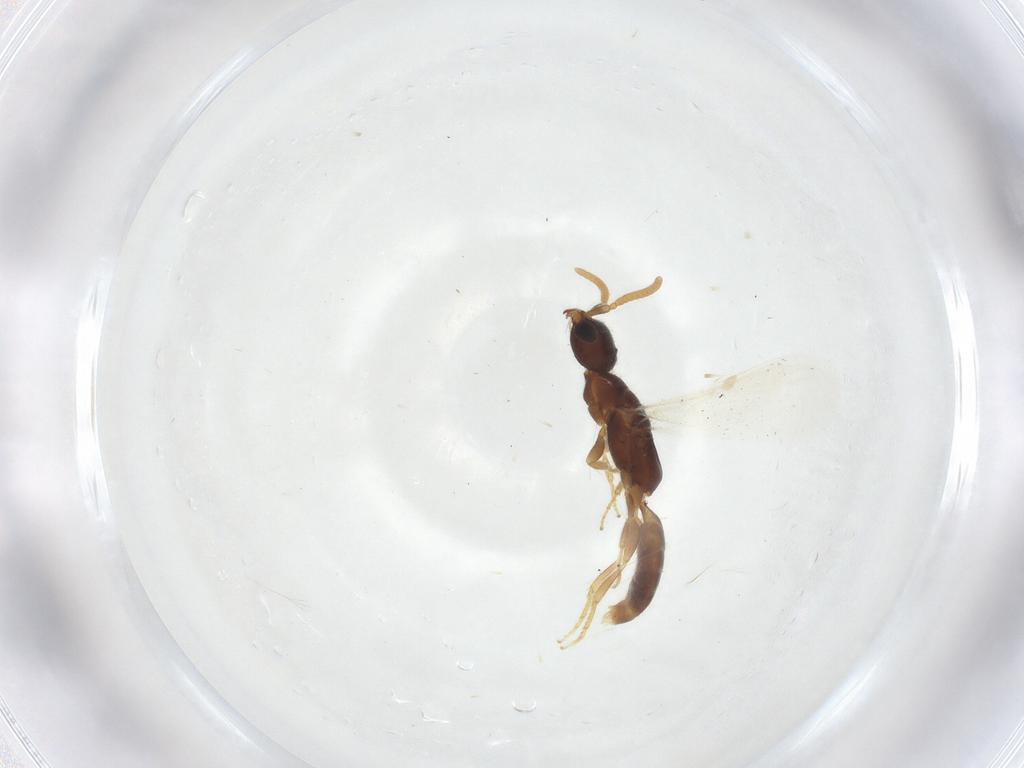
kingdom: Animalia
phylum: Arthropoda
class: Insecta
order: Hymenoptera
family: Bethylidae
